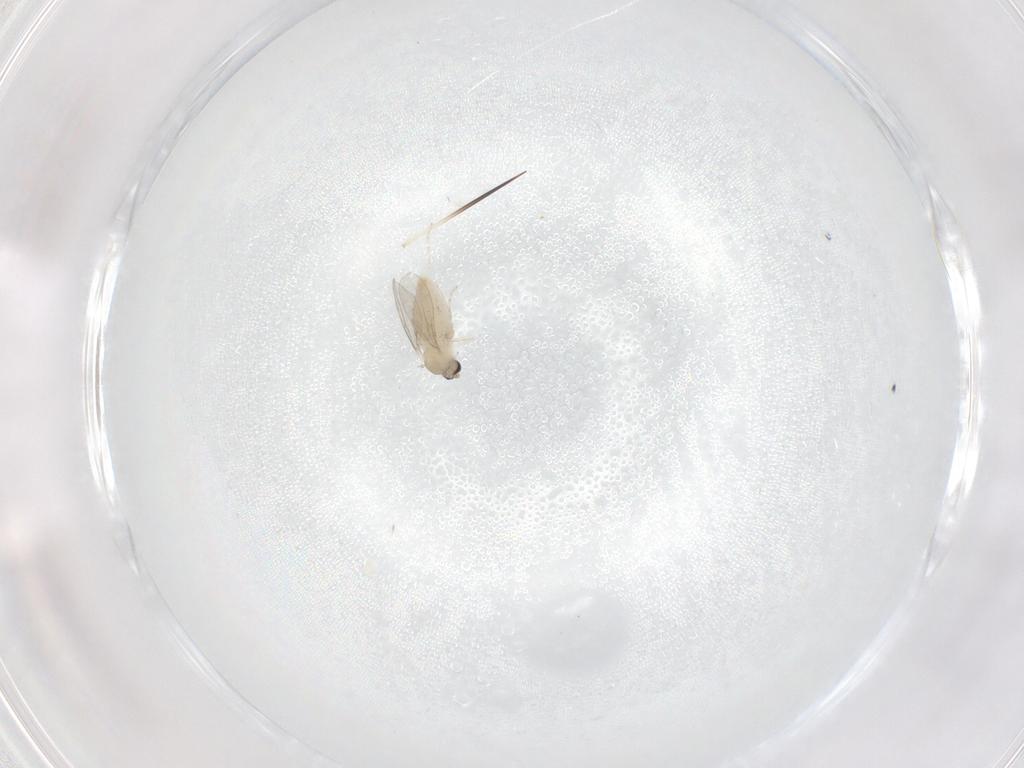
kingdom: Animalia
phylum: Arthropoda
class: Insecta
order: Diptera
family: Cecidomyiidae
